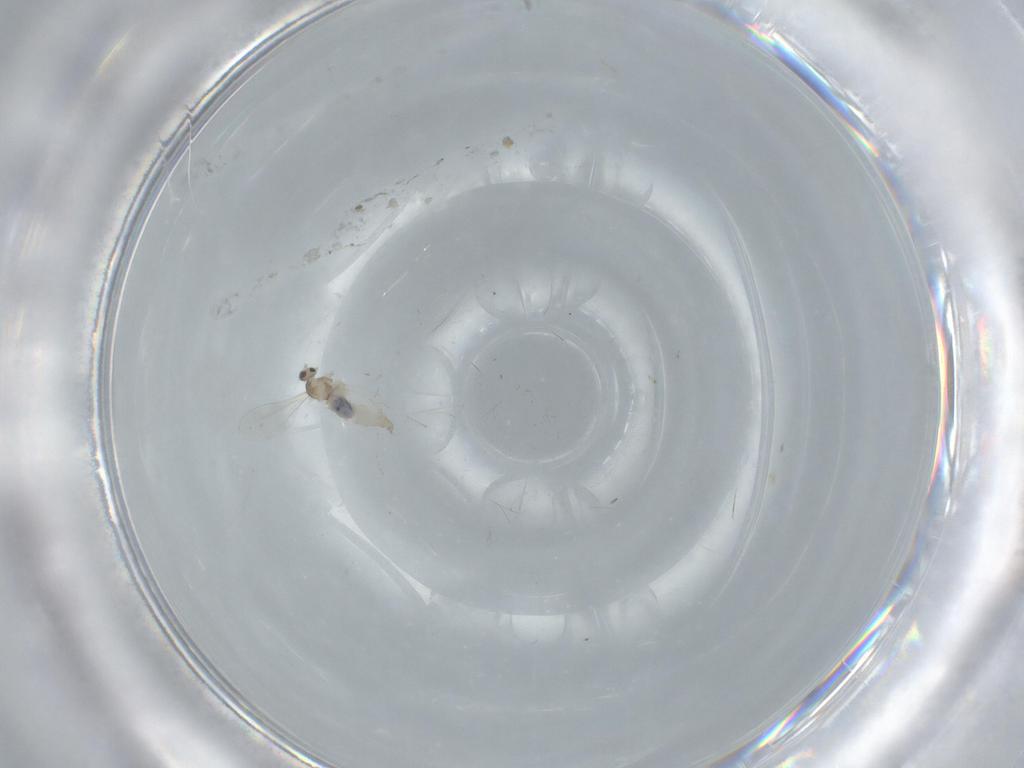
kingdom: Animalia
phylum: Arthropoda
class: Insecta
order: Diptera
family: Cecidomyiidae
